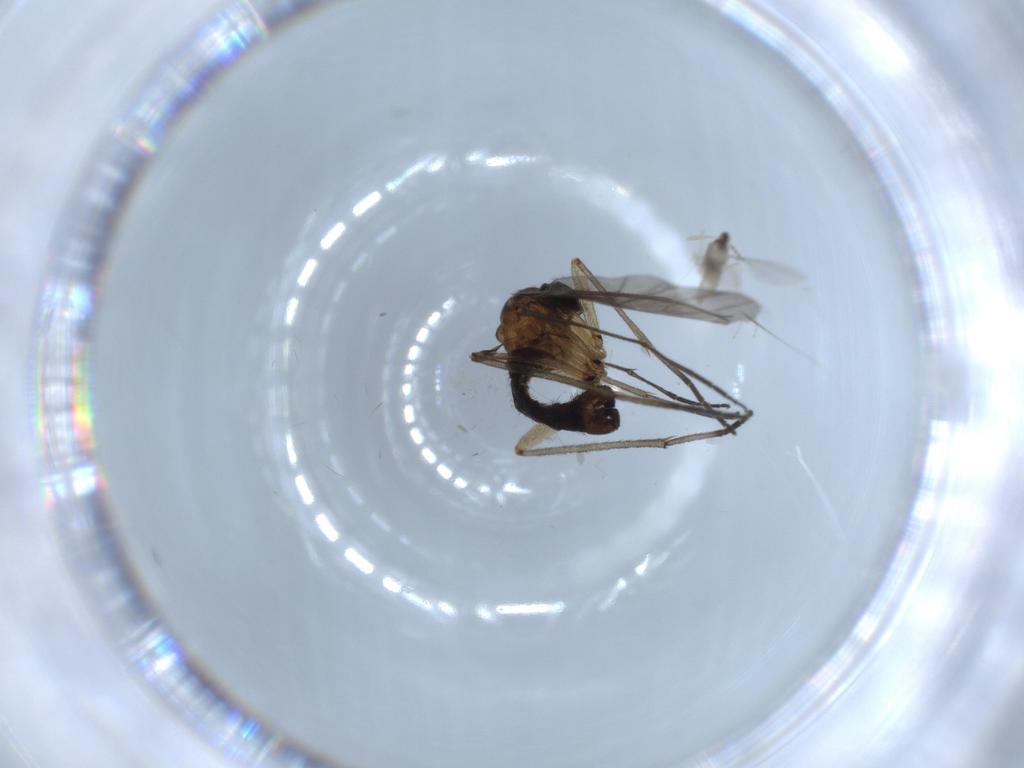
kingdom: Animalia
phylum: Arthropoda
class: Insecta
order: Diptera
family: Sciaridae
